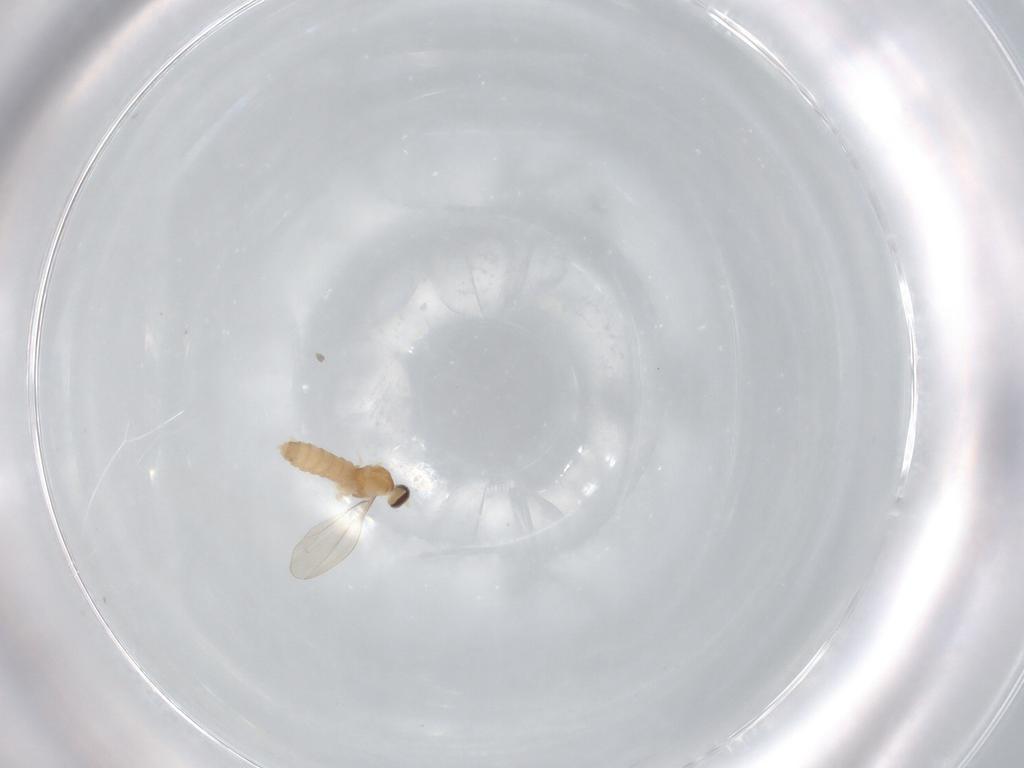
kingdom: Animalia
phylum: Arthropoda
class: Insecta
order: Diptera
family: Cecidomyiidae
